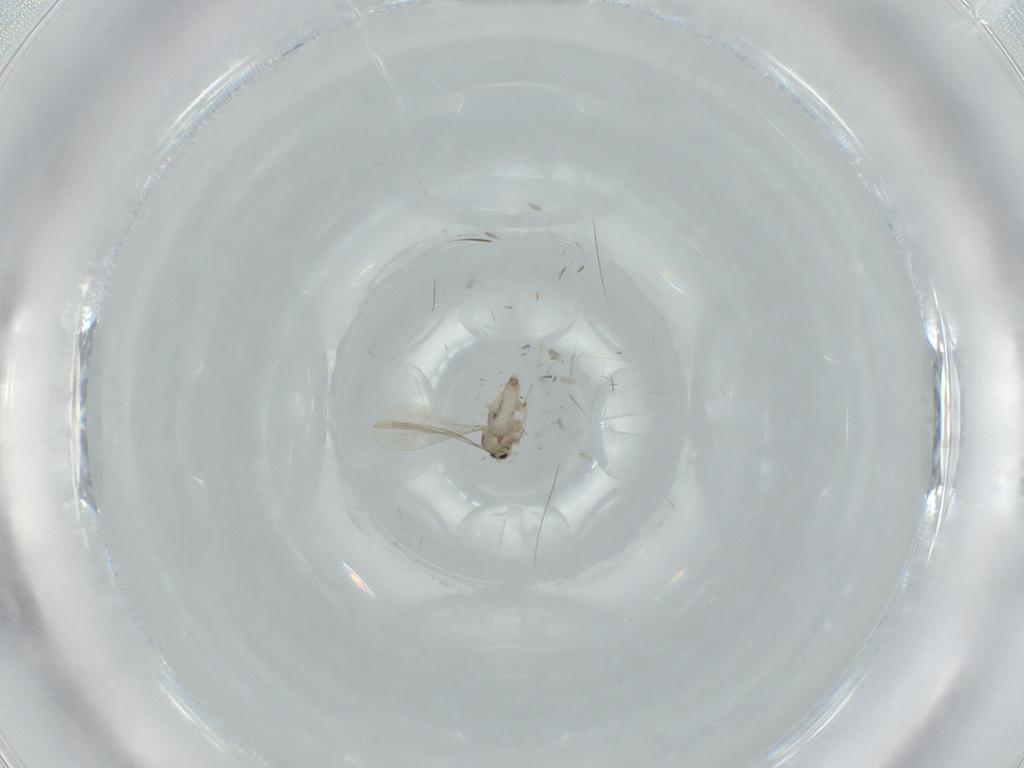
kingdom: Animalia
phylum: Arthropoda
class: Insecta
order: Diptera
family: Cecidomyiidae
